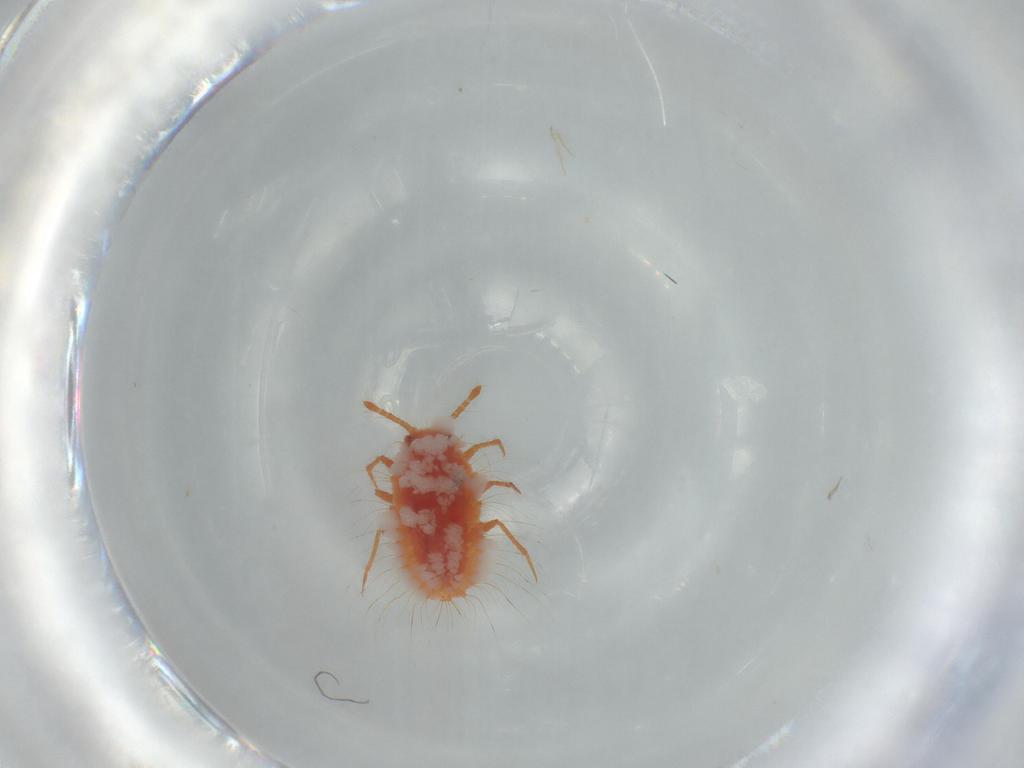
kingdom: Animalia
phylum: Arthropoda
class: Insecta
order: Hemiptera
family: Coccoidea_incertae_sedis
